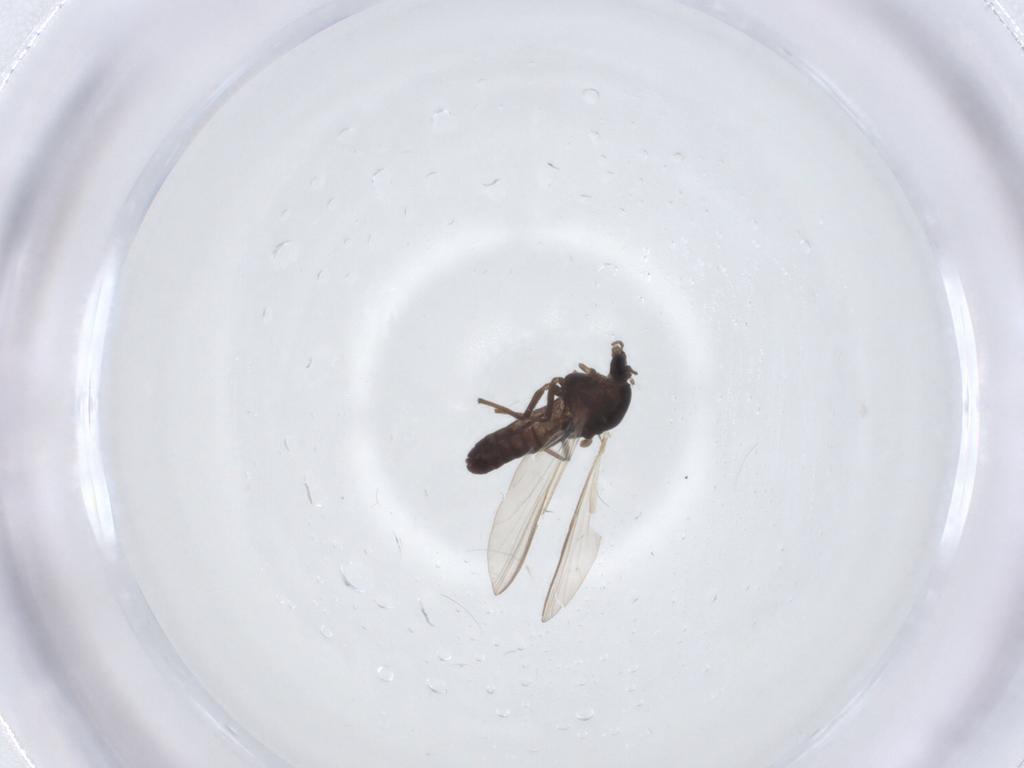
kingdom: Animalia
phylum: Arthropoda
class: Insecta
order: Diptera
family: Chironomidae
